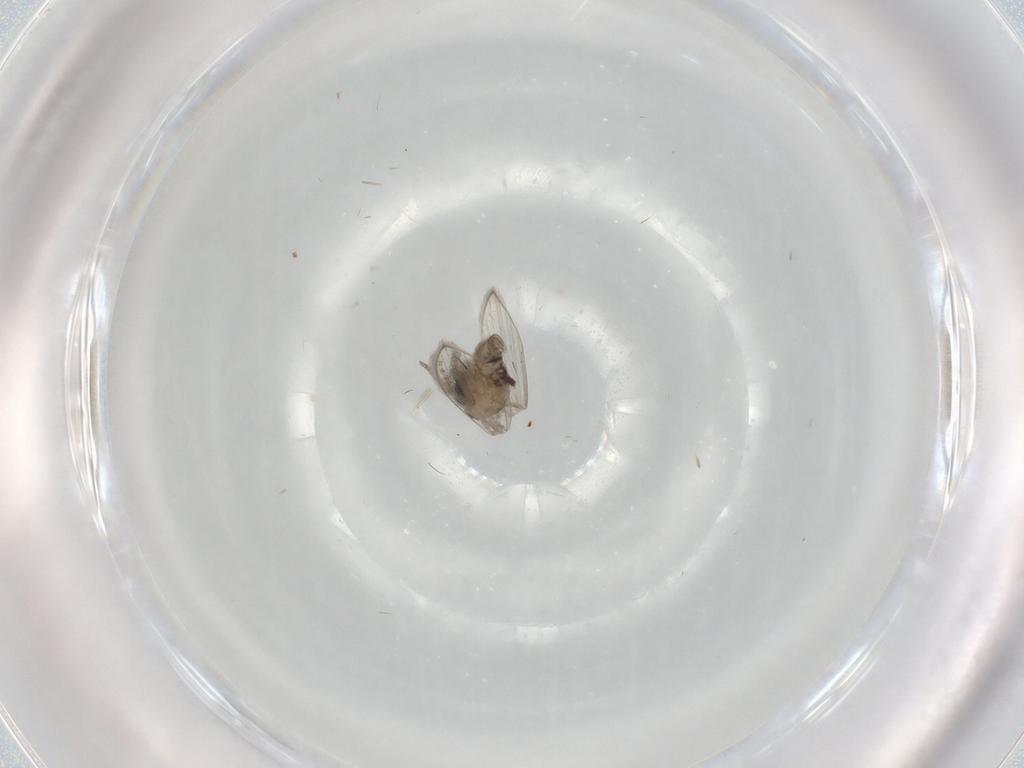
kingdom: Animalia
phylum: Arthropoda
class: Insecta
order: Diptera
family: Psychodidae
